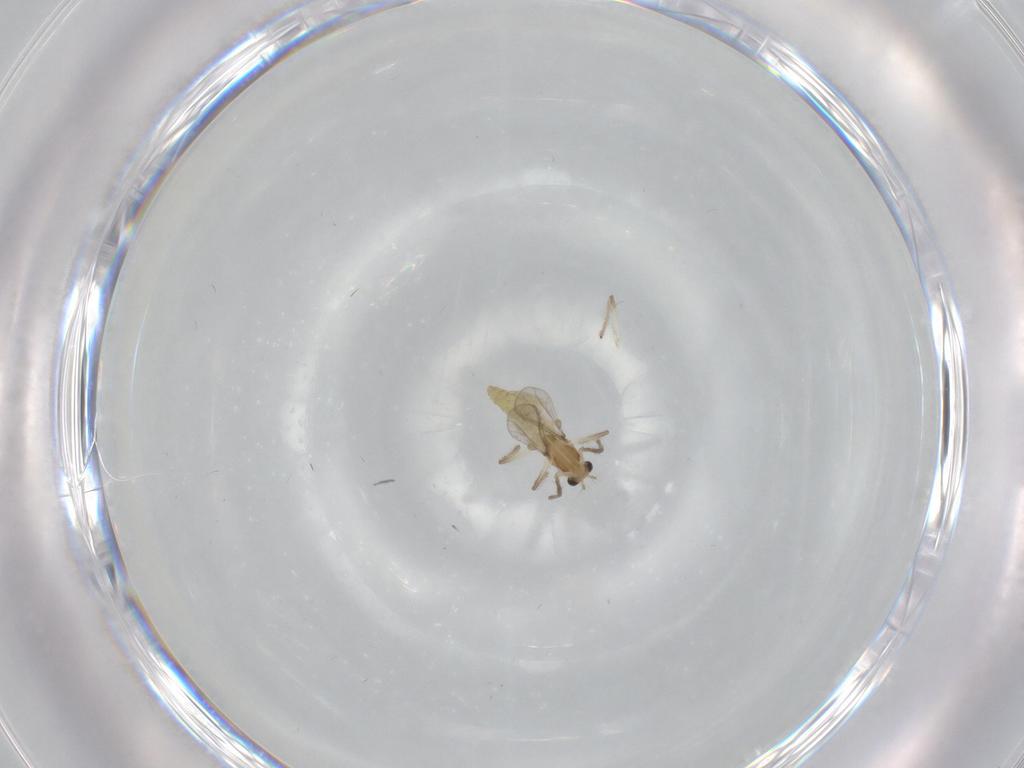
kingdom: Animalia
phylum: Arthropoda
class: Insecta
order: Diptera
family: Chironomidae
